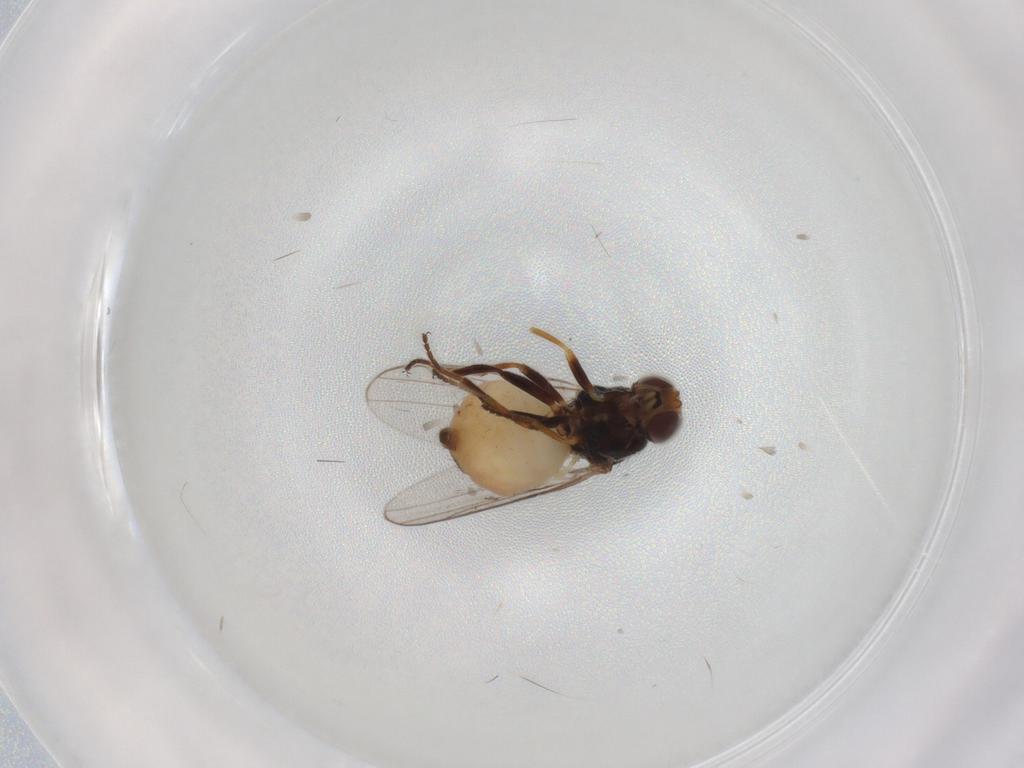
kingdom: Animalia
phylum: Arthropoda
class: Insecta
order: Diptera
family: Chloropidae
